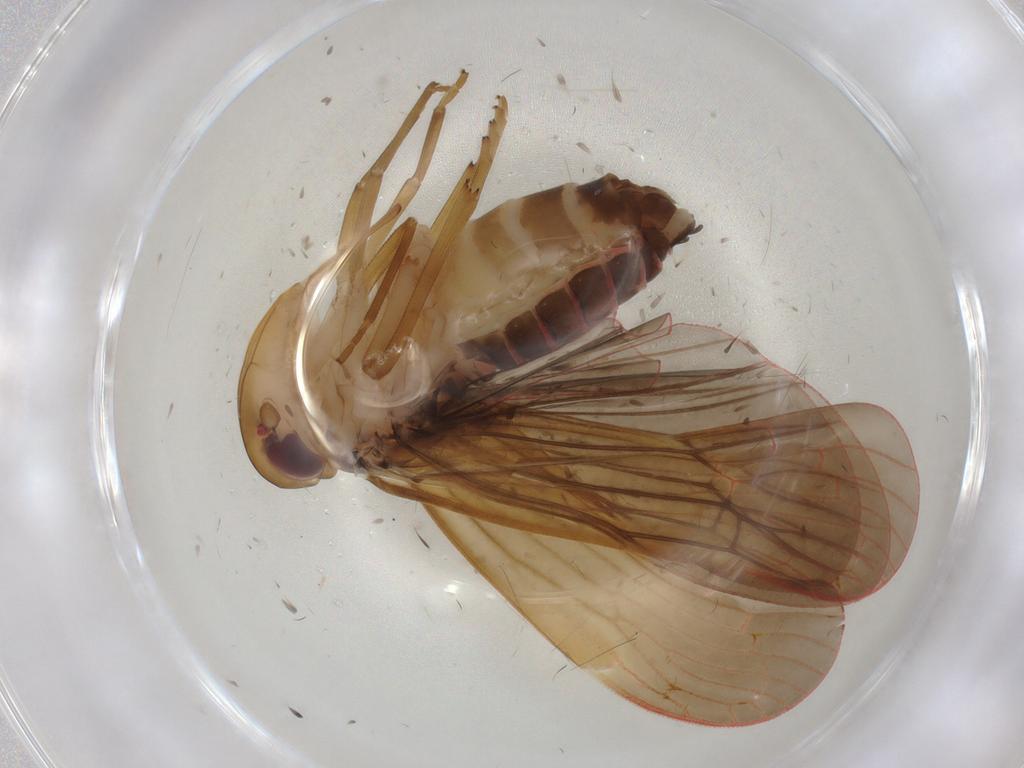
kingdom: Animalia
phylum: Arthropoda
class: Insecta
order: Hemiptera
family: Achilidae
